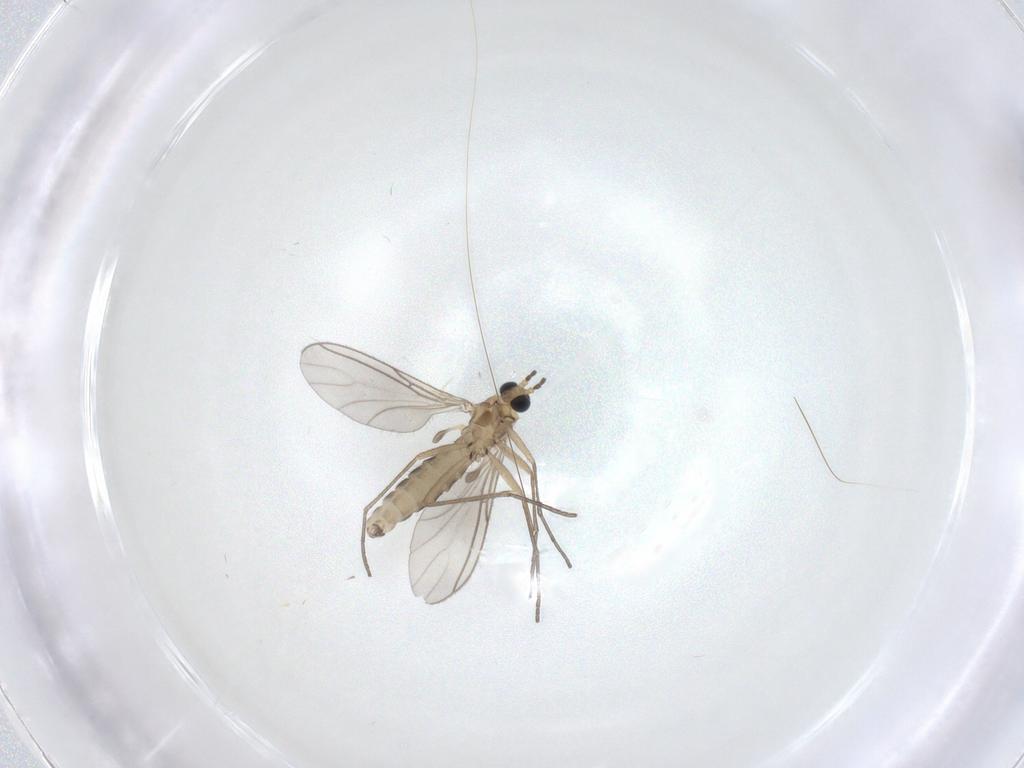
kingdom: Animalia
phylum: Arthropoda
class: Insecta
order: Diptera
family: Sciaridae
